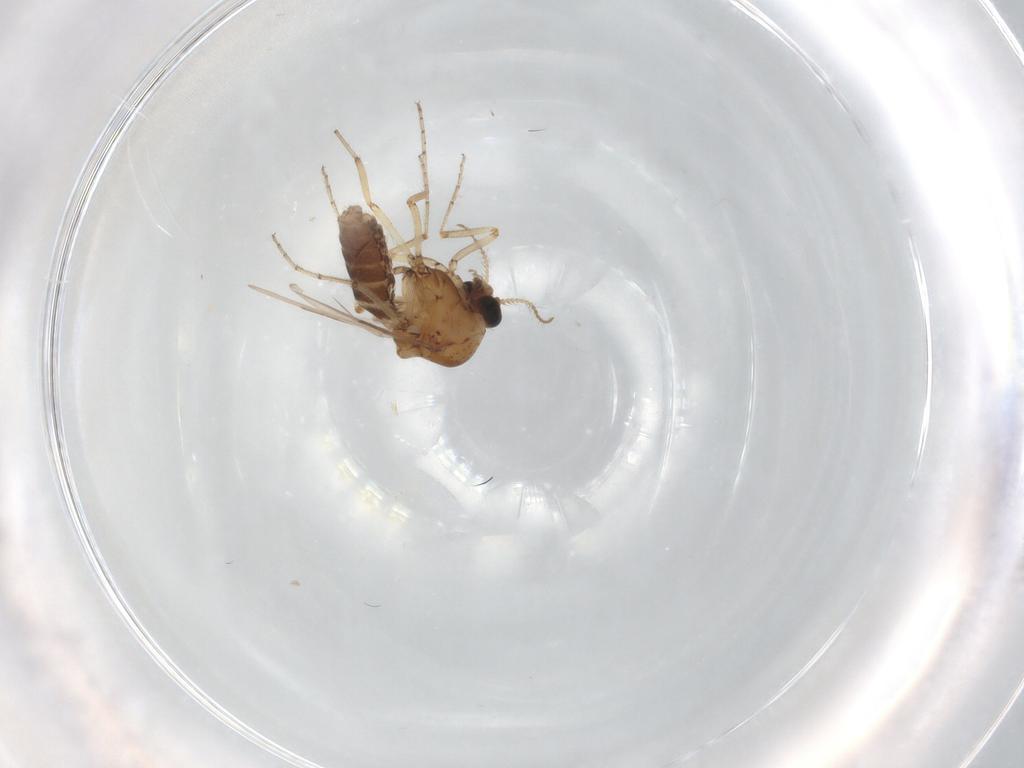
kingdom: Animalia
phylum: Arthropoda
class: Insecta
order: Diptera
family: Ceratopogonidae
